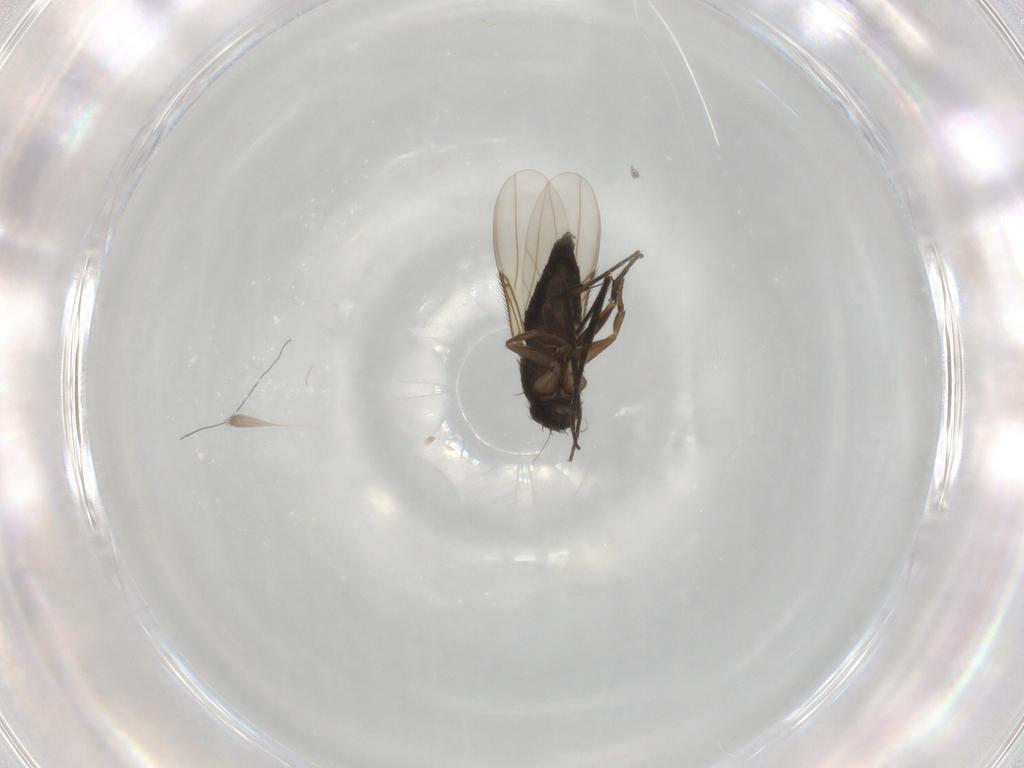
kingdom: Animalia
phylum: Arthropoda
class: Insecta
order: Diptera
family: Phoridae
